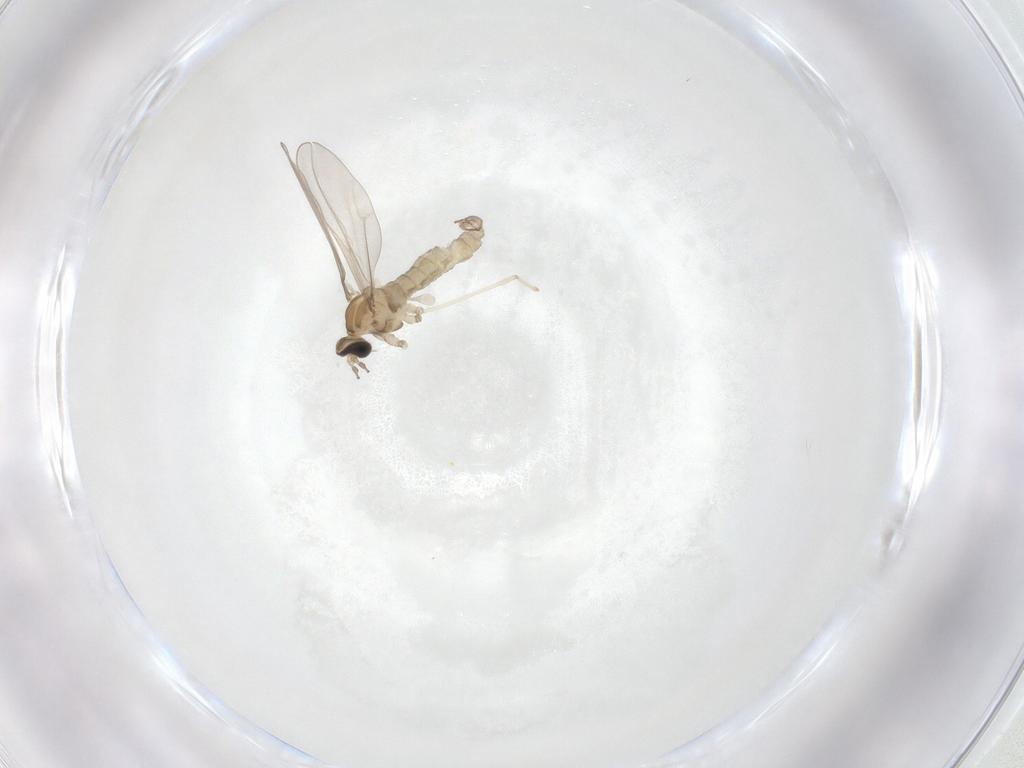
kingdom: Animalia
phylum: Arthropoda
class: Insecta
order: Diptera
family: Cecidomyiidae
